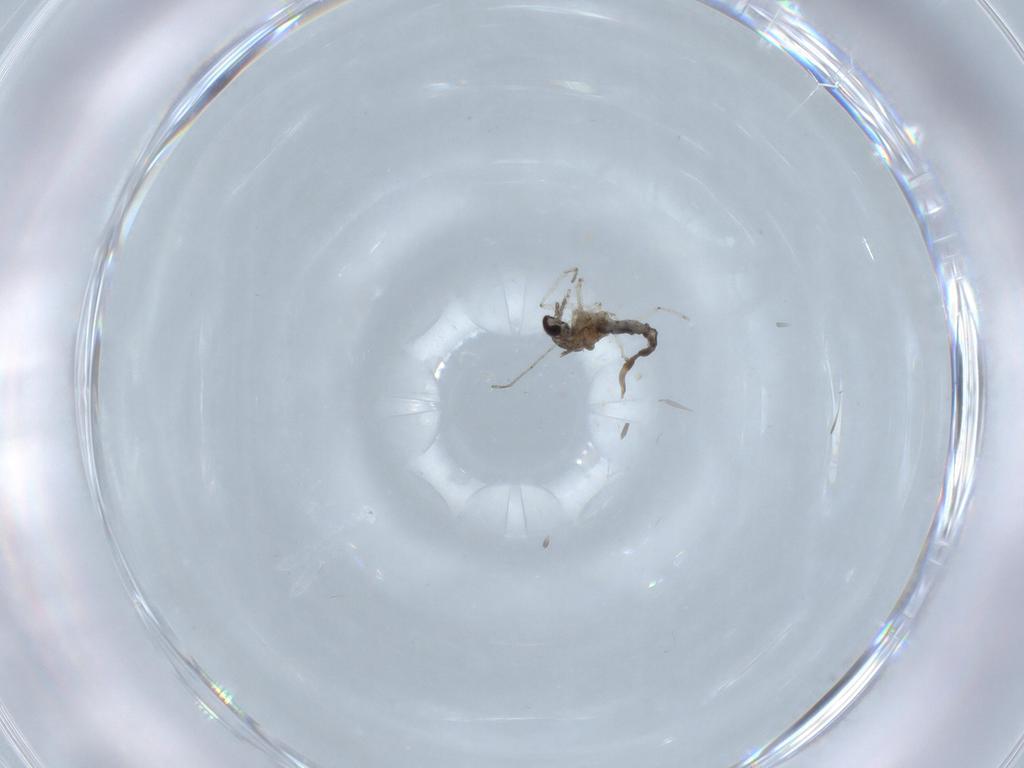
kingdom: Animalia
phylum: Arthropoda
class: Insecta
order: Diptera
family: Cecidomyiidae
